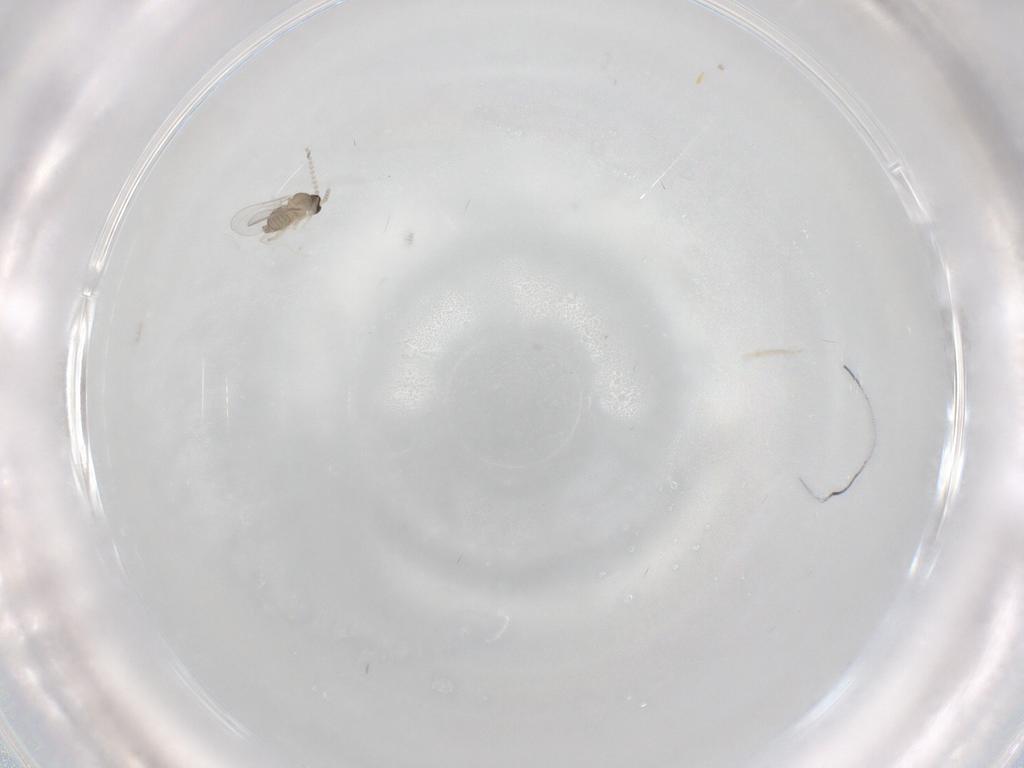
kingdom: Animalia
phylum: Arthropoda
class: Insecta
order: Diptera
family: Cecidomyiidae
